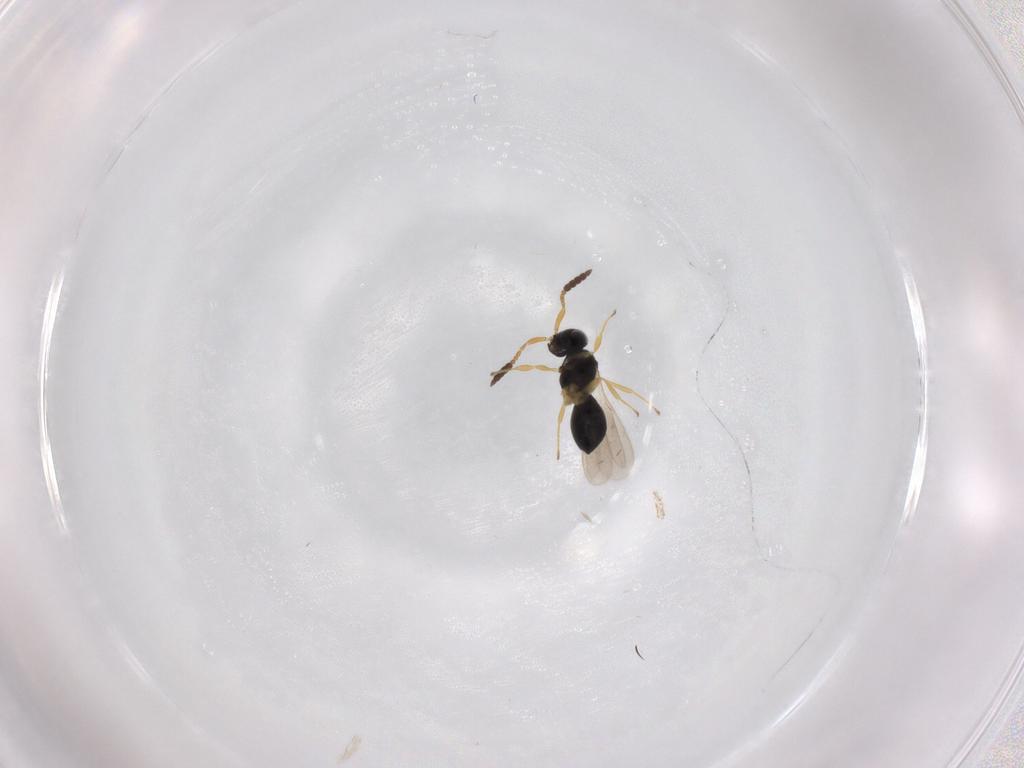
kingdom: Animalia
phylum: Arthropoda
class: Insecta
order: Hymenoptera
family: Scelionidae
